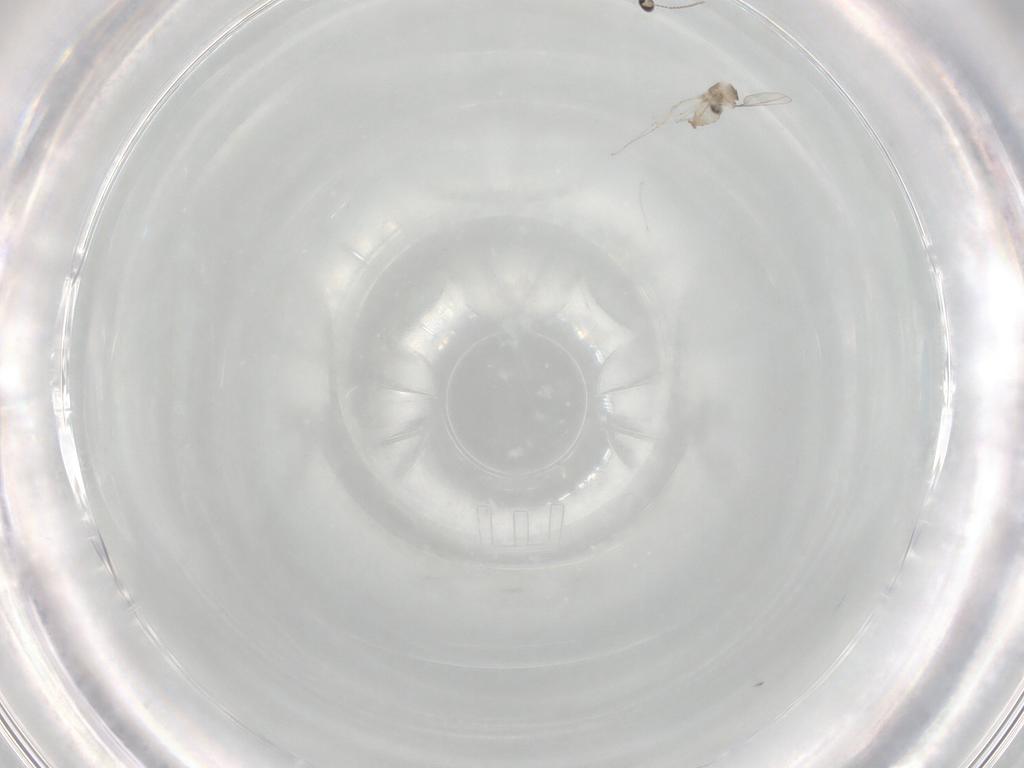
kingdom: Animalia
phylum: Arthropoda
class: Insecta
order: Diptera
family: Cecidomyiidae
